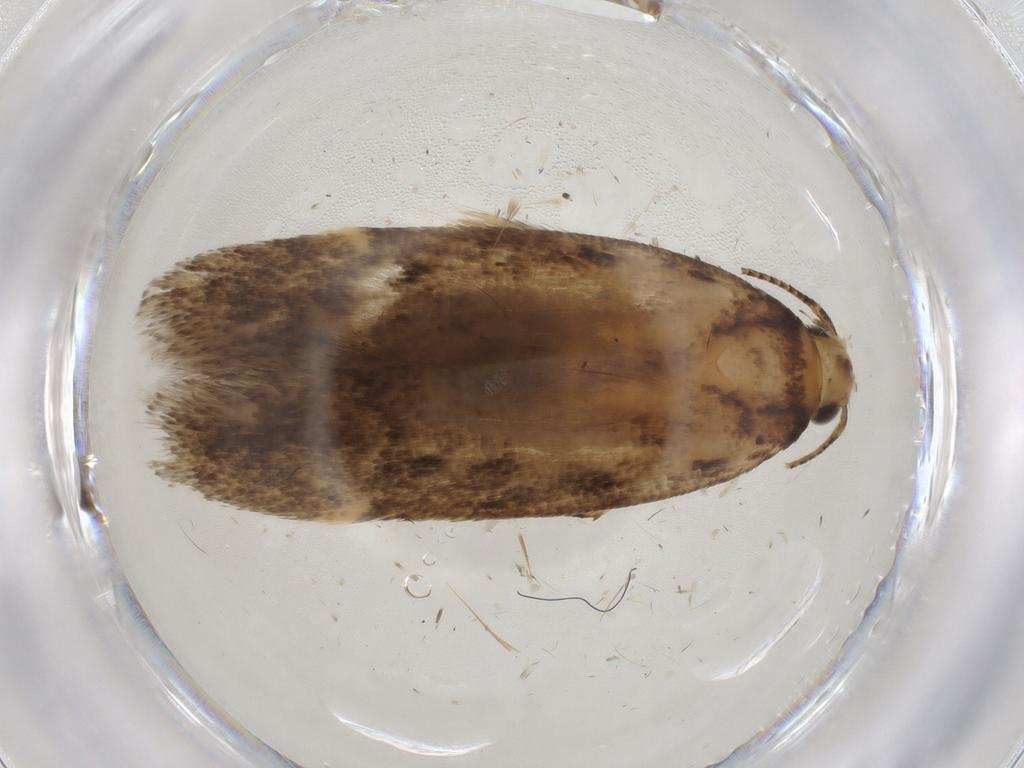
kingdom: Animalia
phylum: Arthropoda
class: Insecta
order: Lepidoptera
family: Gelechiidae
